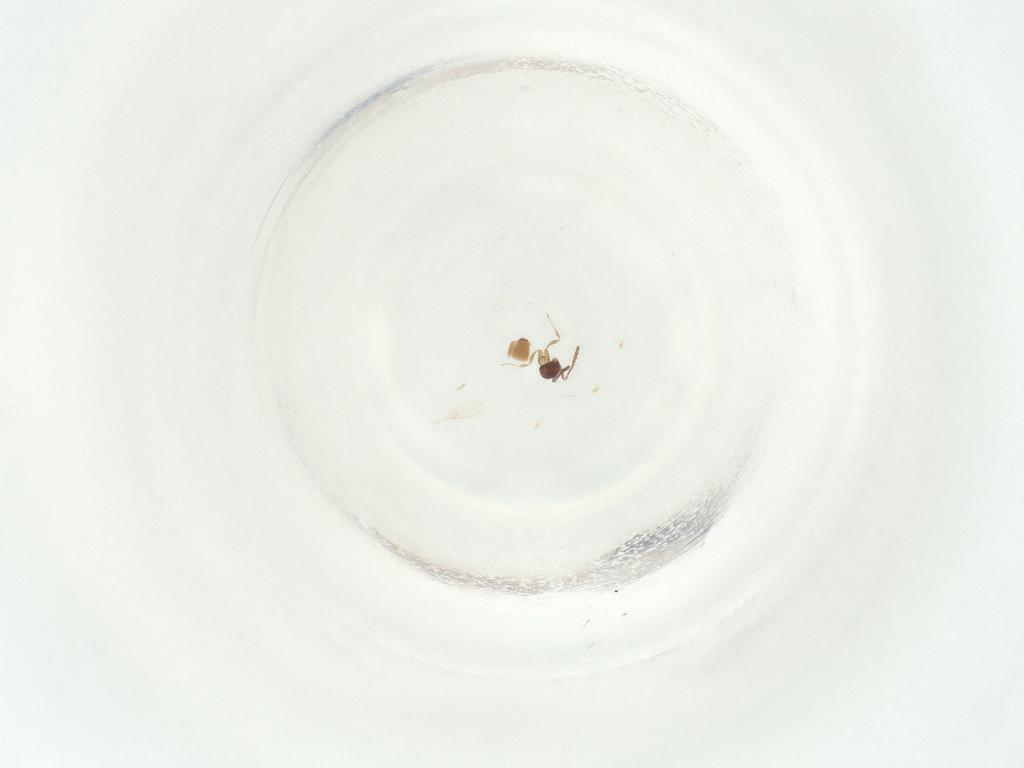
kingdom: Animalia
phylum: Arthropoda
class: Insecta
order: Hymenoptera
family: Scelionidae
